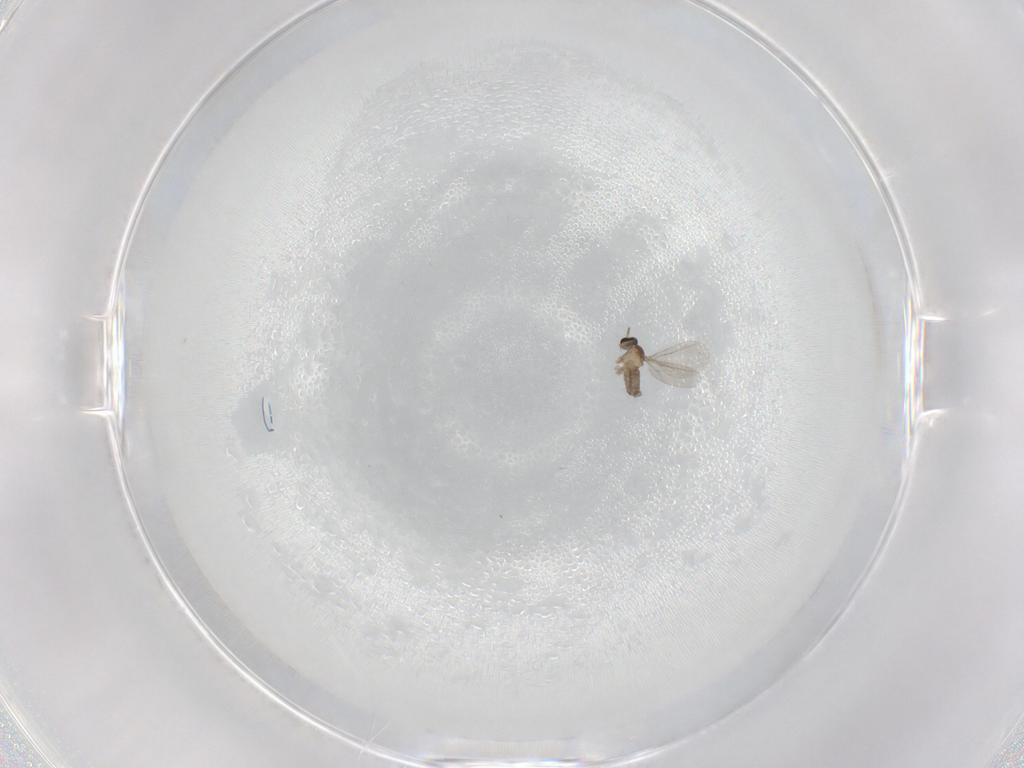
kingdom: Animalia
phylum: Arthropoda
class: Insecta
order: Diptera
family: Cecidomyiidae
